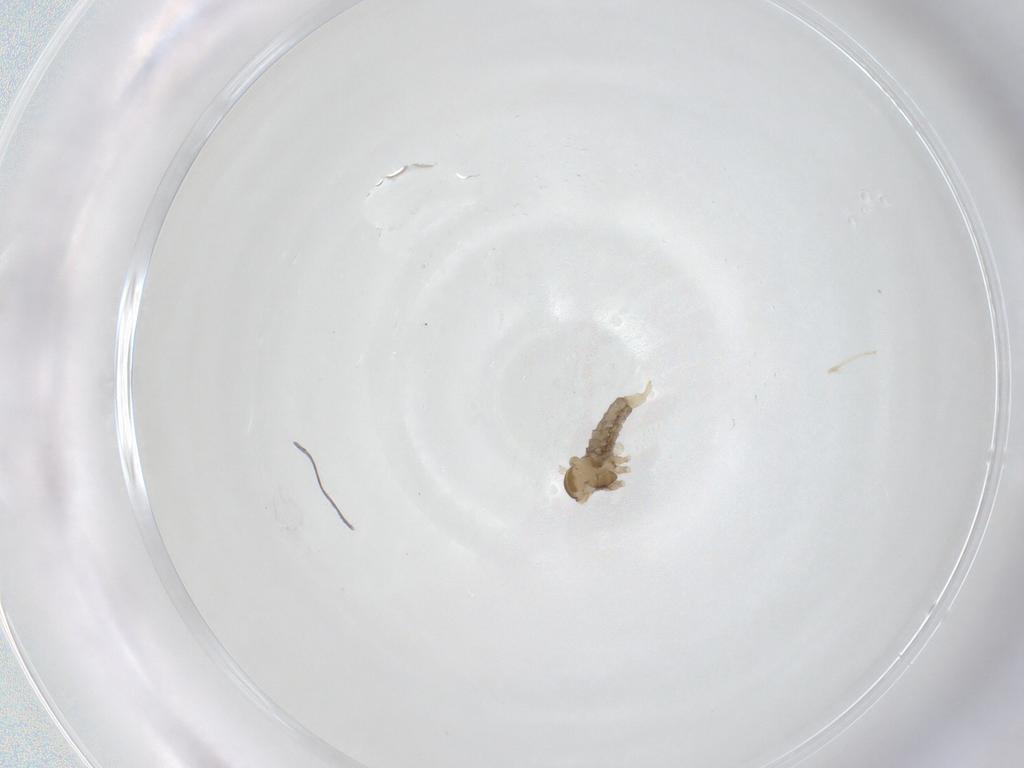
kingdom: Animalia
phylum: Arthropoda
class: Insecta
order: Diptera
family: Cecidomyiidae
